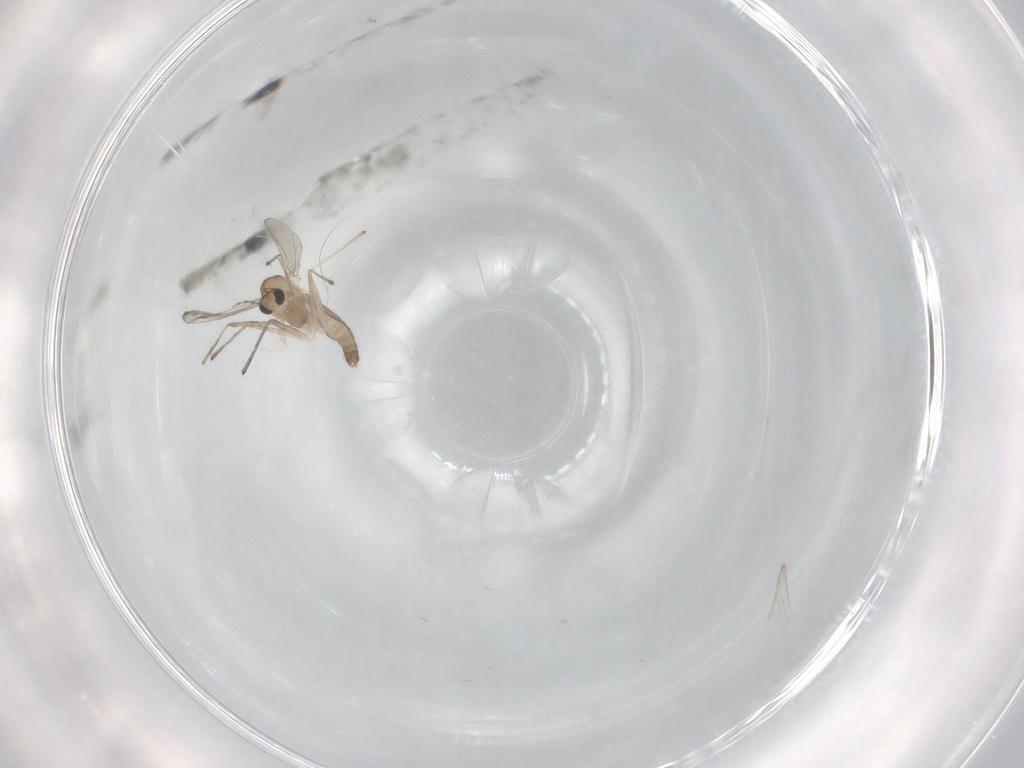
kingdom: Animalia
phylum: Arthropoda
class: Insecta
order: Diptera
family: Chironomidae
